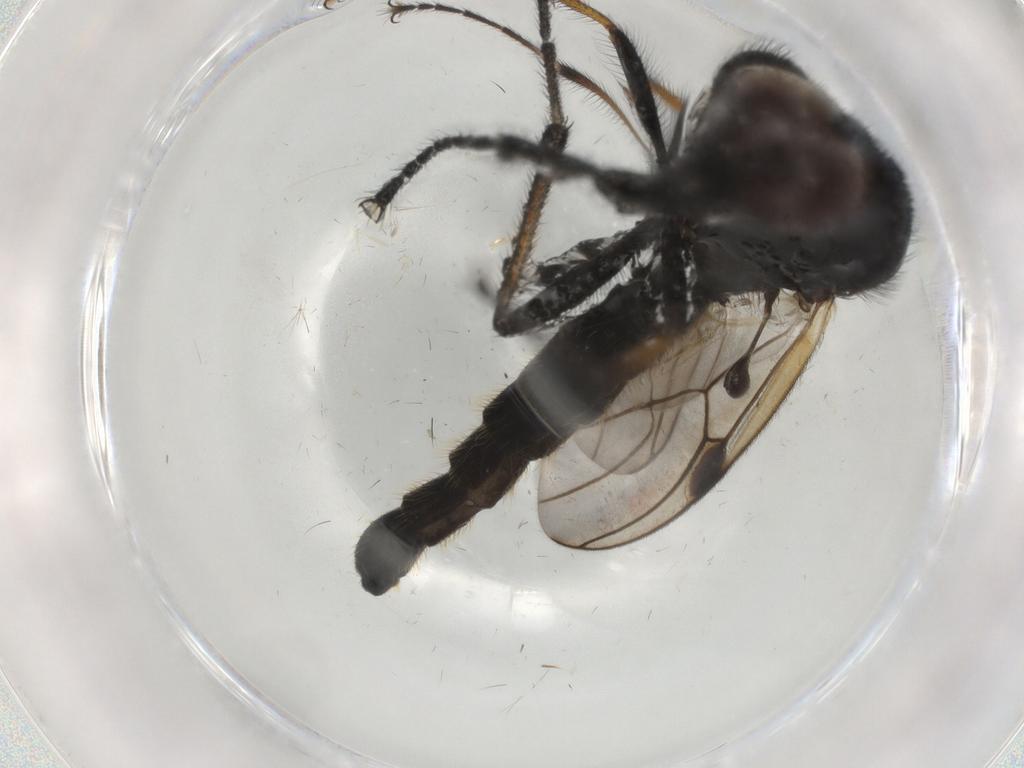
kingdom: Animalia
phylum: Arthropoda
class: Insecta
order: Diptera
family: Bibionidae
